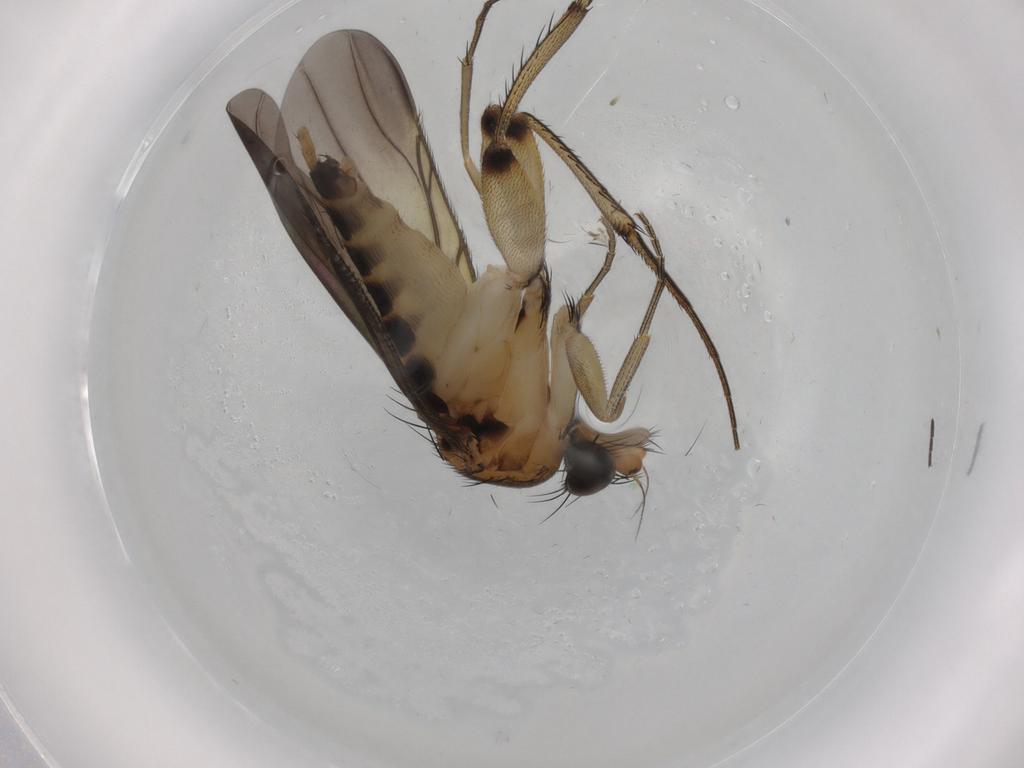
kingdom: Animalia
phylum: Arthropoda
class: Insecta
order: Diptera
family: Phoridae
